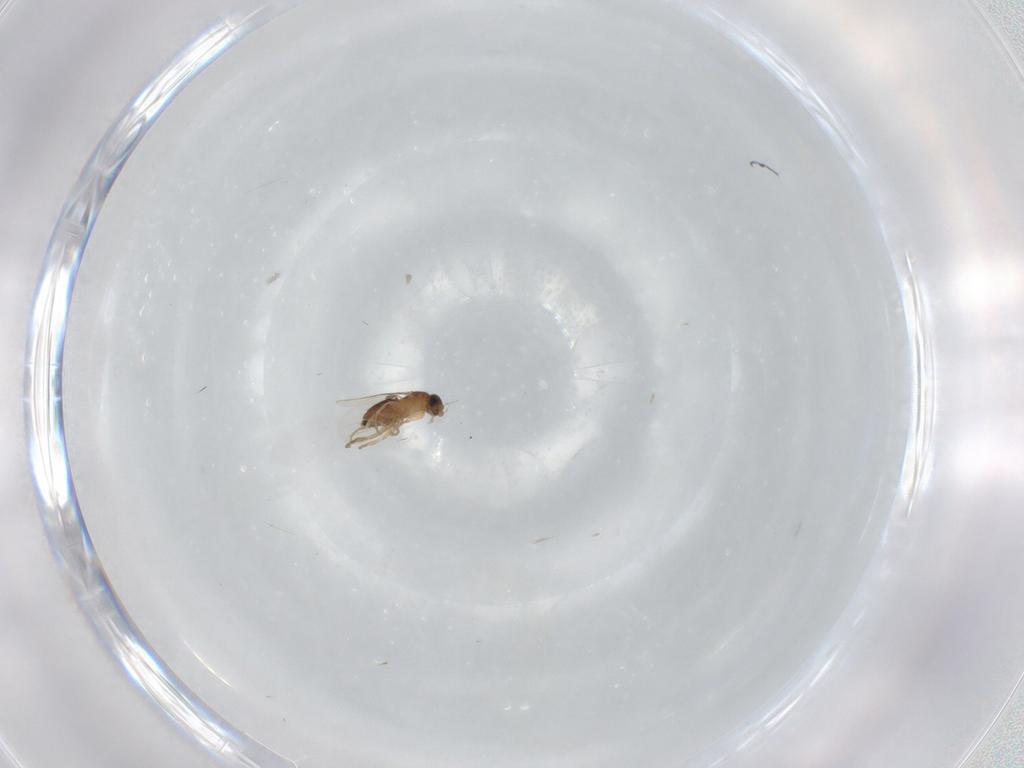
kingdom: Animalia
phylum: Arthropoda
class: Insecta
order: Diptera
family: Phoridae
